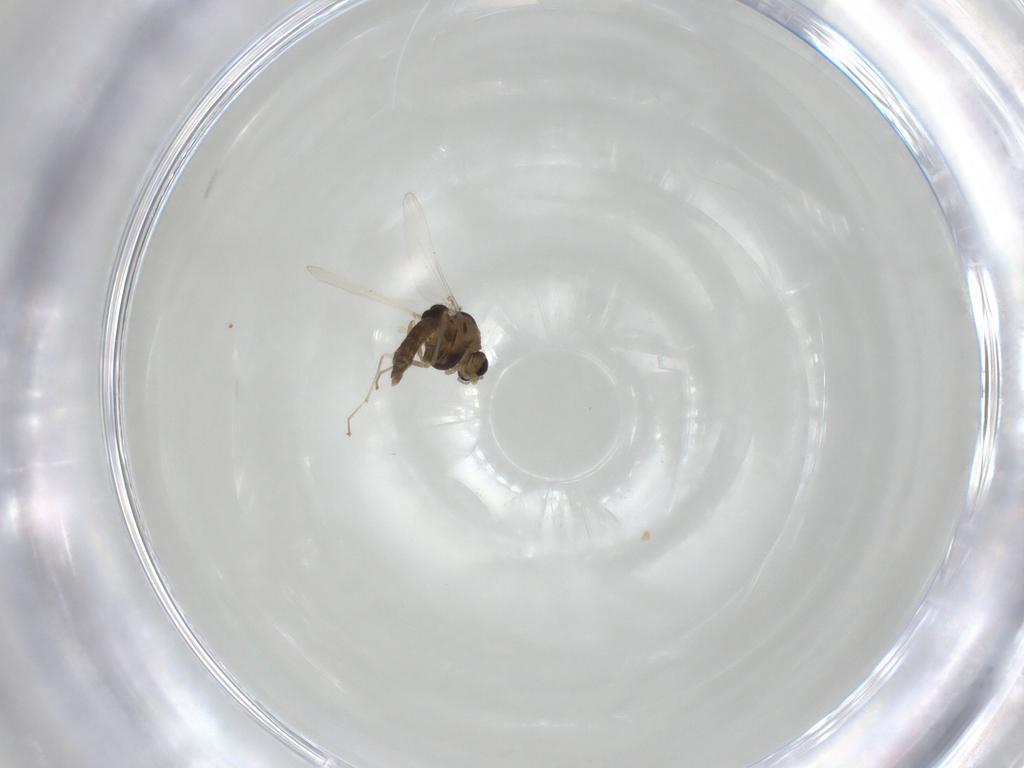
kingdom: Animalia
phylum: Arthropoda
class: Insecta
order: Diptera
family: Chironomidae
